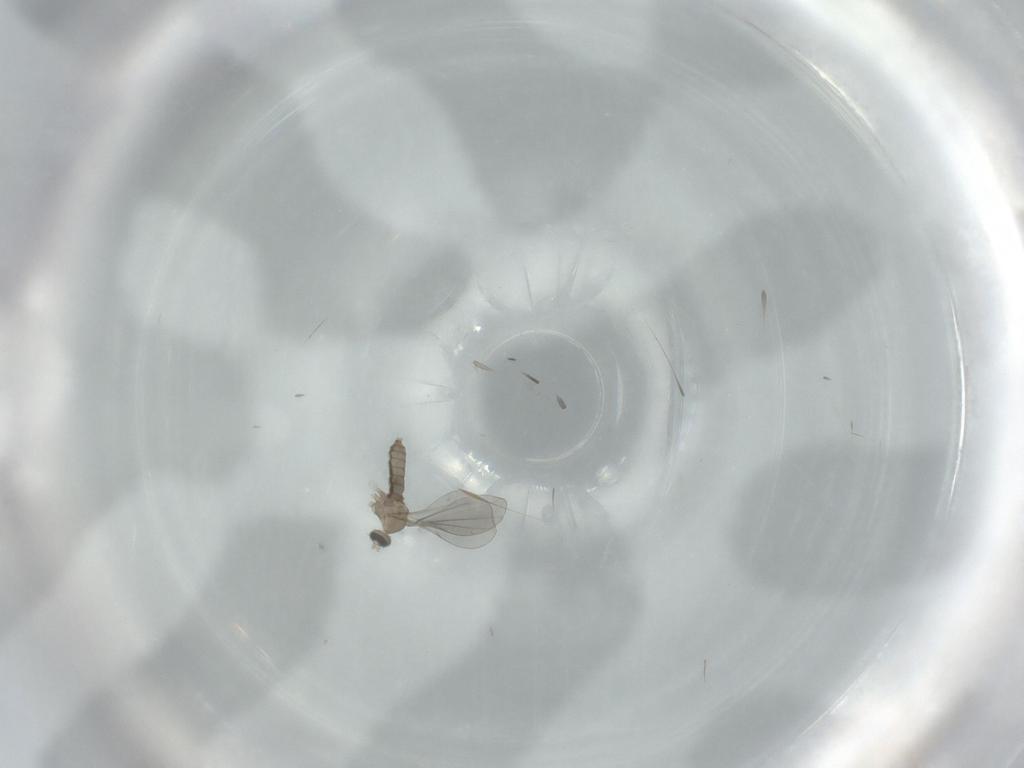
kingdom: Animalia
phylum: Arthropoda
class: Insecta
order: Diptera
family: Cecidomyiidae
